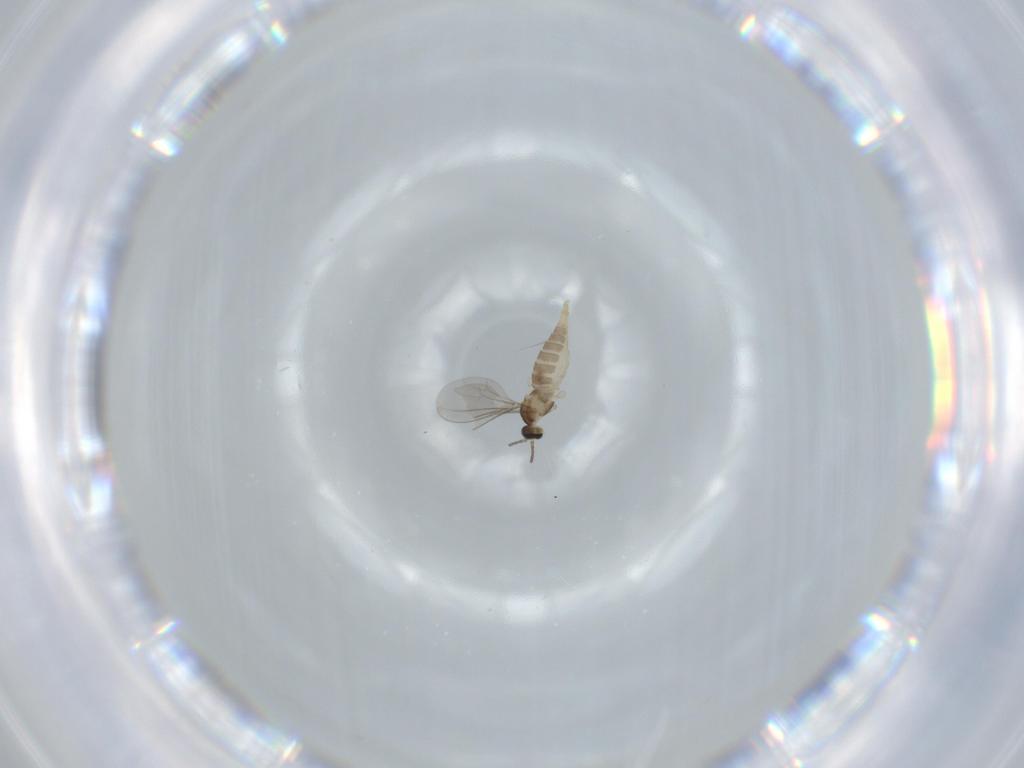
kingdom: Animalia
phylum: Arthropoda
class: Insecta
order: Diptera
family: Cecidomyiidae
